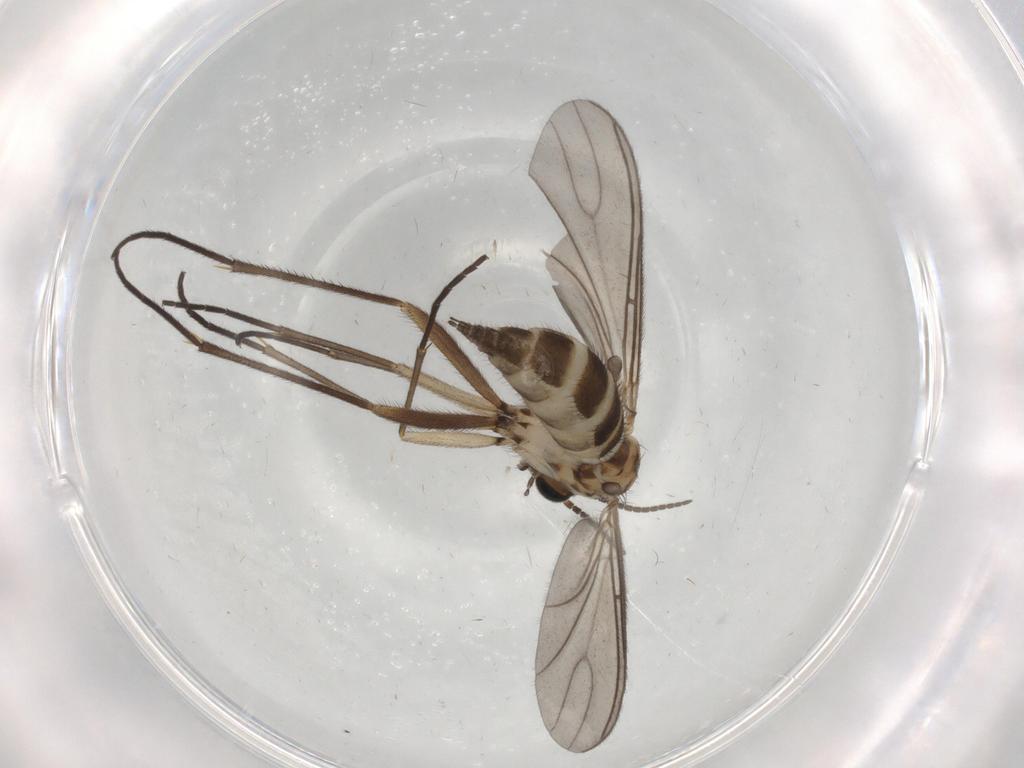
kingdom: Animalia
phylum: Arthropoda
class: Insecta
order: Diptera
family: Sciaridae
